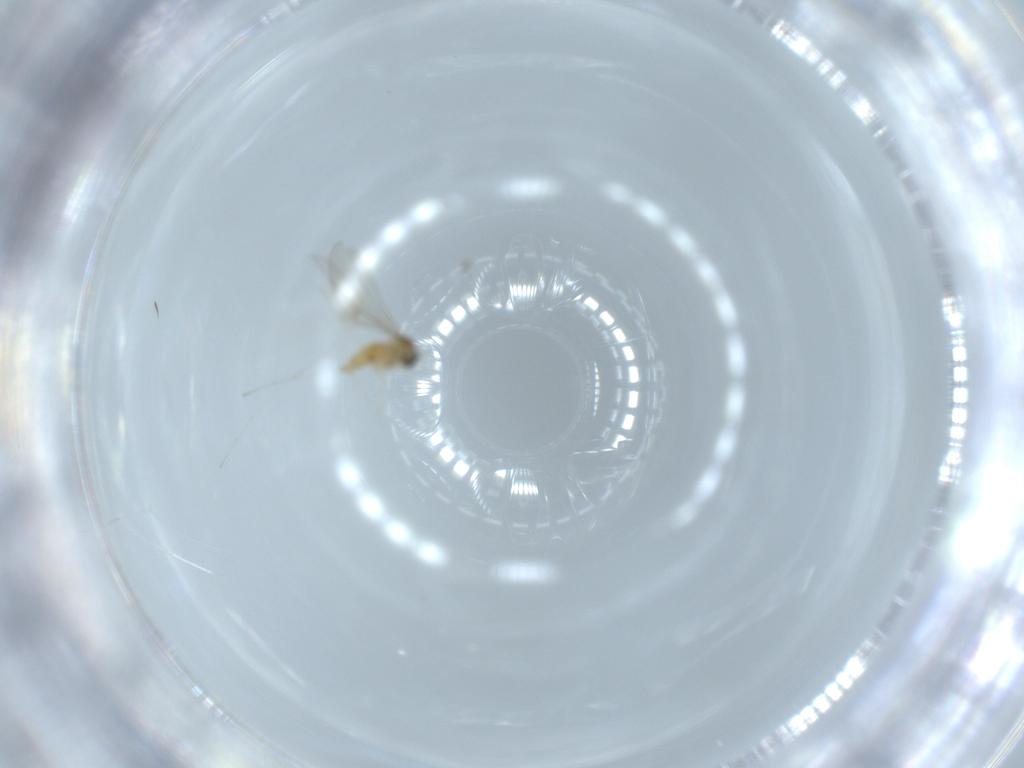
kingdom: Animalia
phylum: Arthropoda
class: Insecta
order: Diptera
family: Cecidomyiidae
